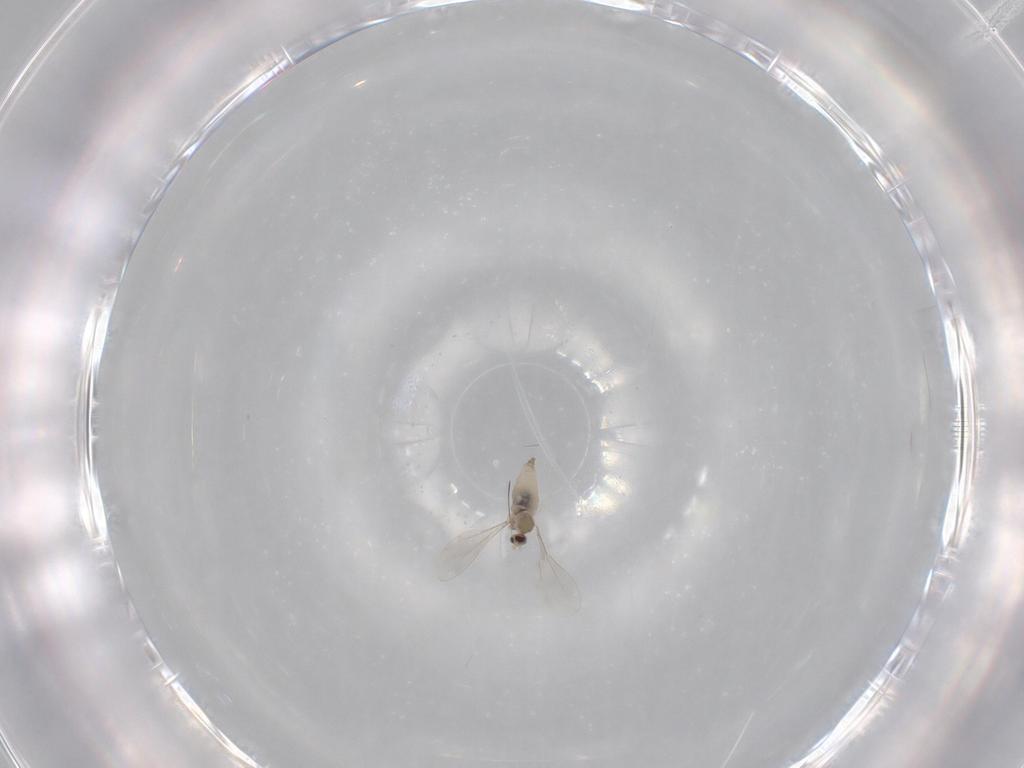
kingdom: Animalia
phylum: Arthropoda
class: Insecta
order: Diptera
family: Cecidomyiidae
